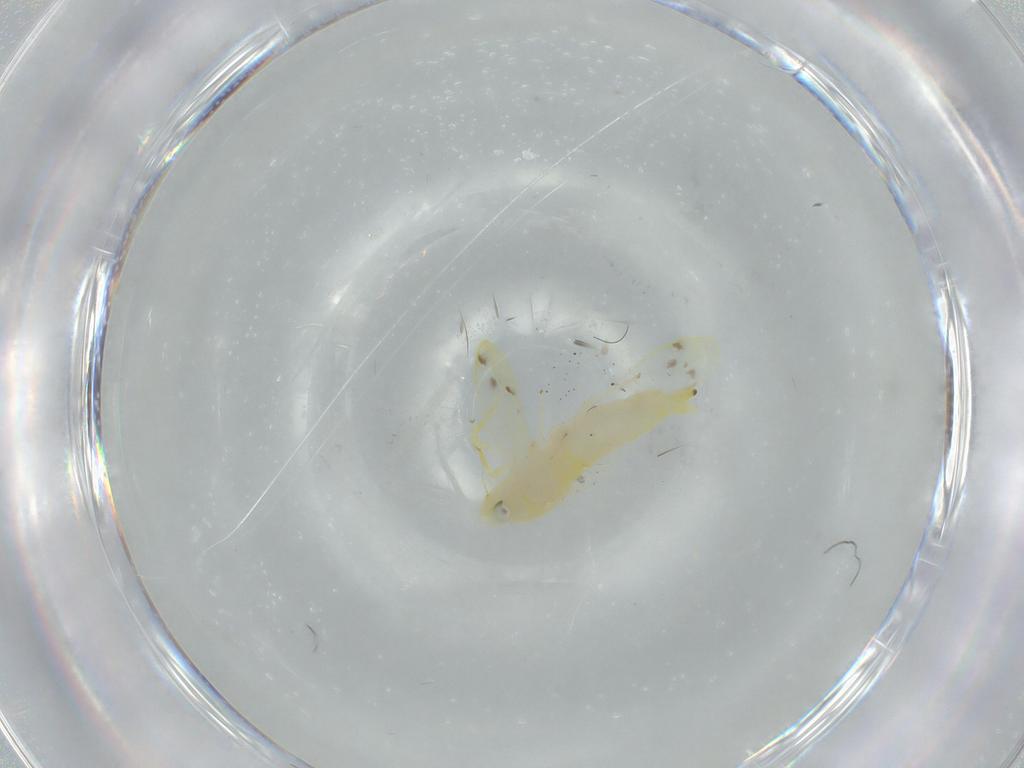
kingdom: Animalia
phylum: Arthropoda
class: Insecta
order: Hemiptera
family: Cicadellidae
